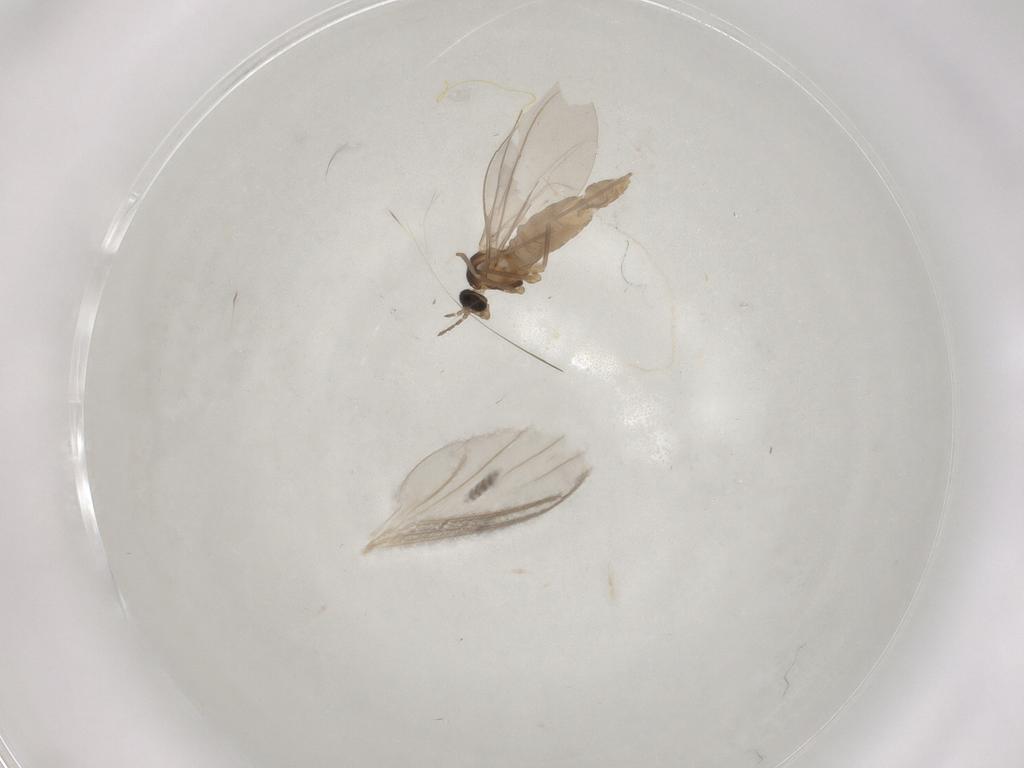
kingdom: Animalia
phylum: Arthropoda
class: Insecta
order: Diptera
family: Cecidomyiidae
